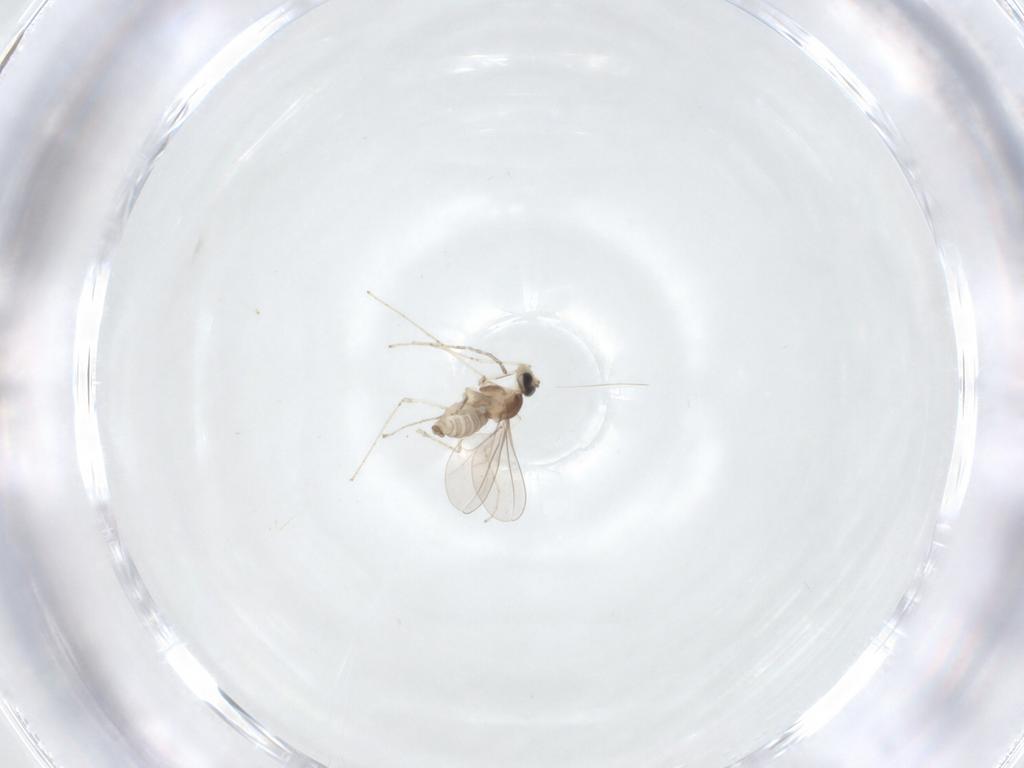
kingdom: Animalia
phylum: Arthropoda
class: Insecta
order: Diptera
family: Cecidomyiidae
